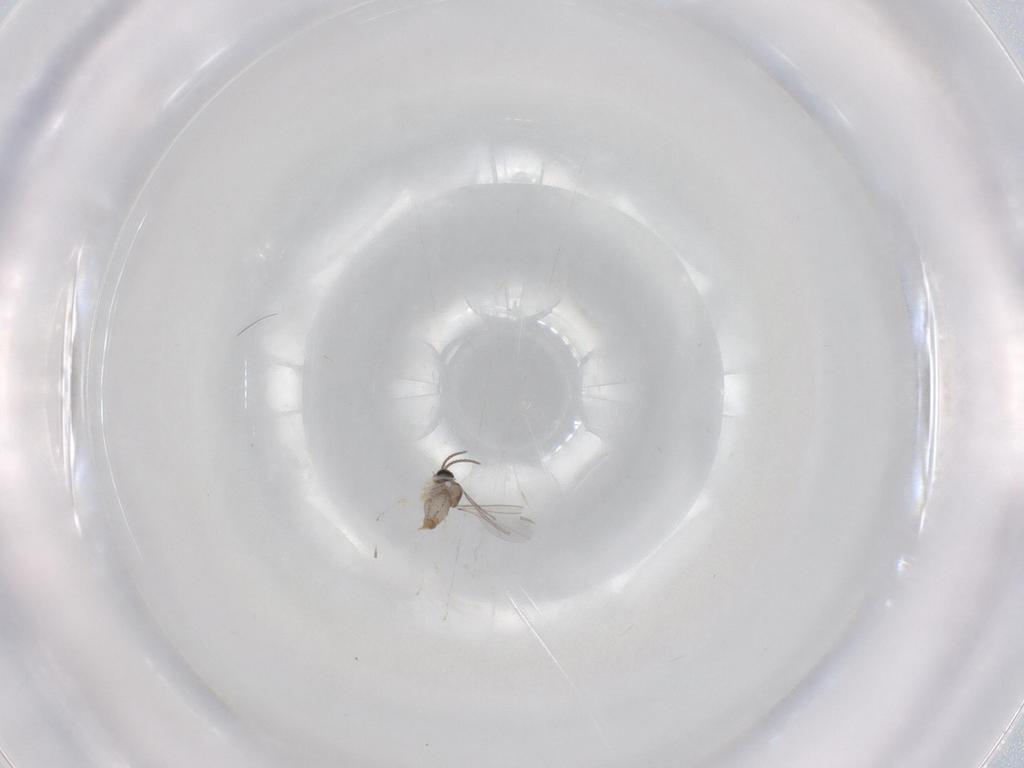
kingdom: Animalia
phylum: Arthropoda
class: Insecta
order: Diptera
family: Cecidomyiidae
